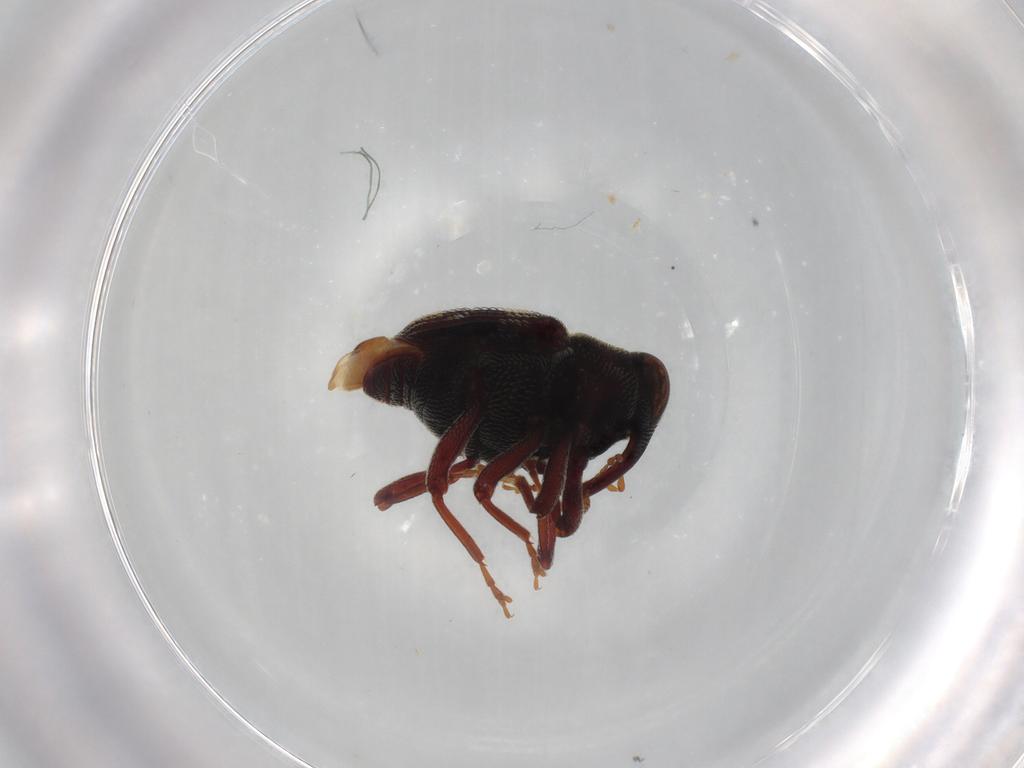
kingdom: Animalia
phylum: Arthropoda
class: Insecta
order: Coleoptera
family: Curculionidae
